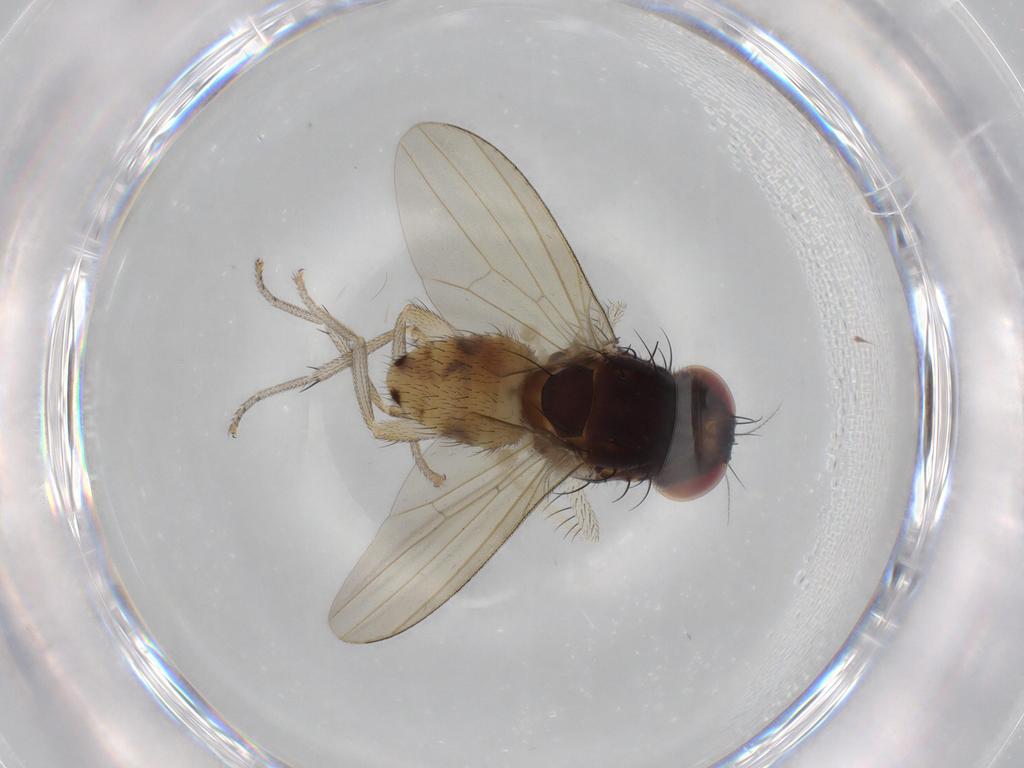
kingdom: Animalia
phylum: Arthropoda
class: Insecta
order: Diptera
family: Lauxaniidae
